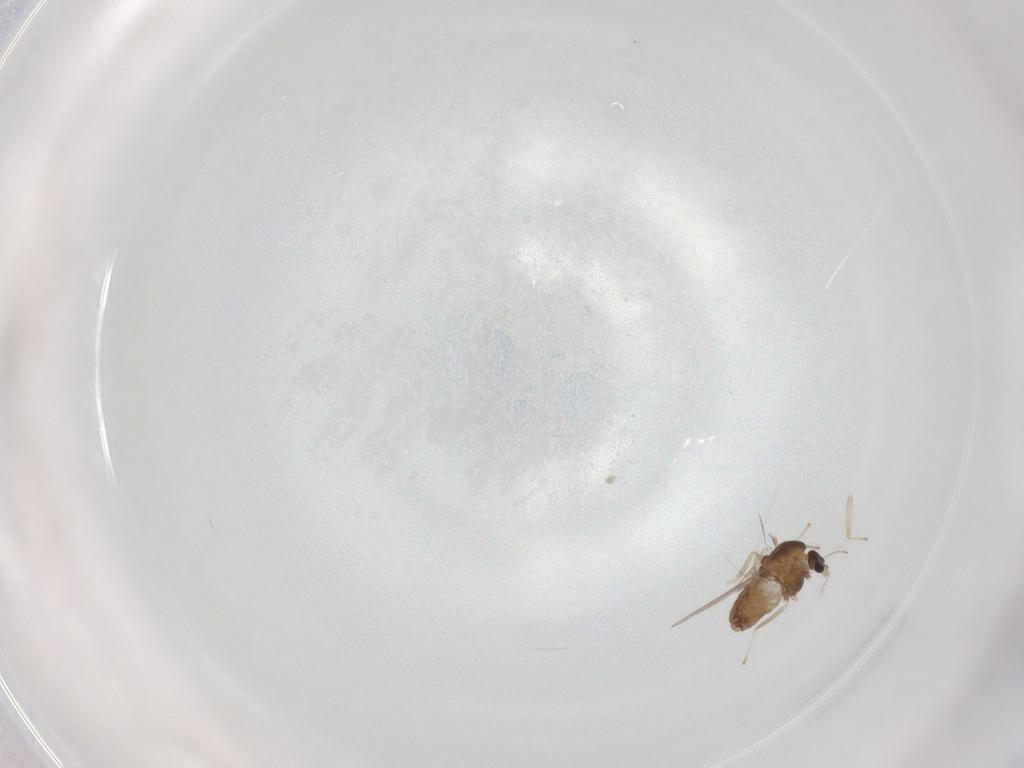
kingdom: Animalia
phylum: Arthropoda
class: Insecta
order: Diptera
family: Chironomidae
